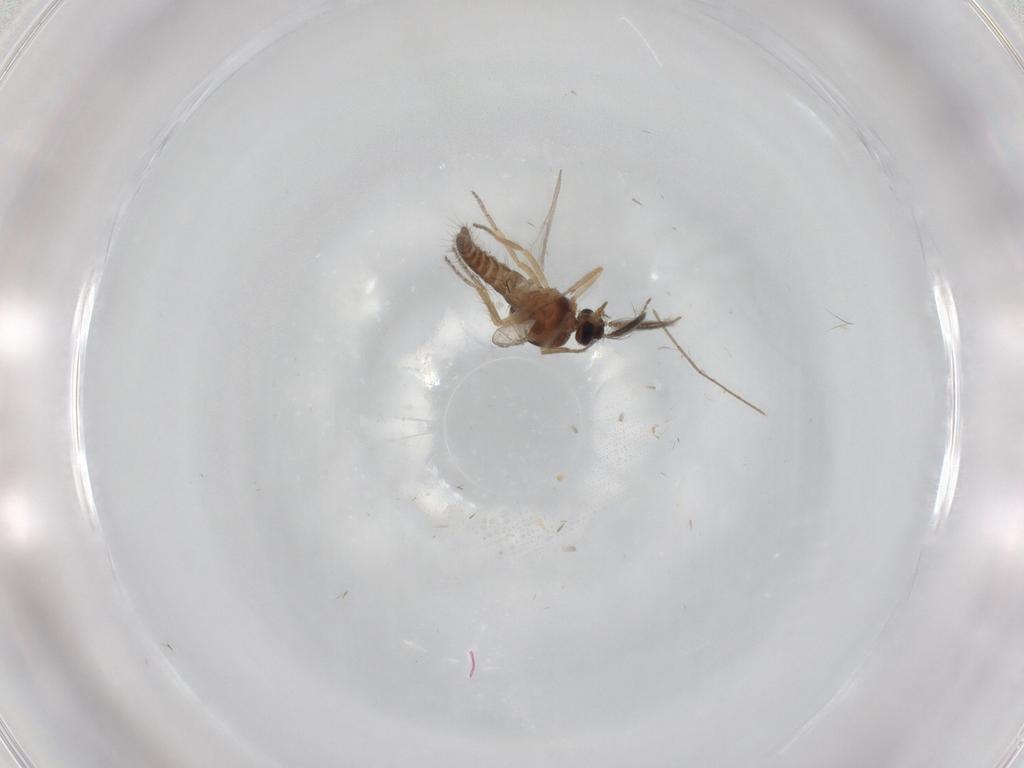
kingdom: Animalia
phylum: Arthropoda
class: Insecta
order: Diptera
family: Ceratopogonidae
